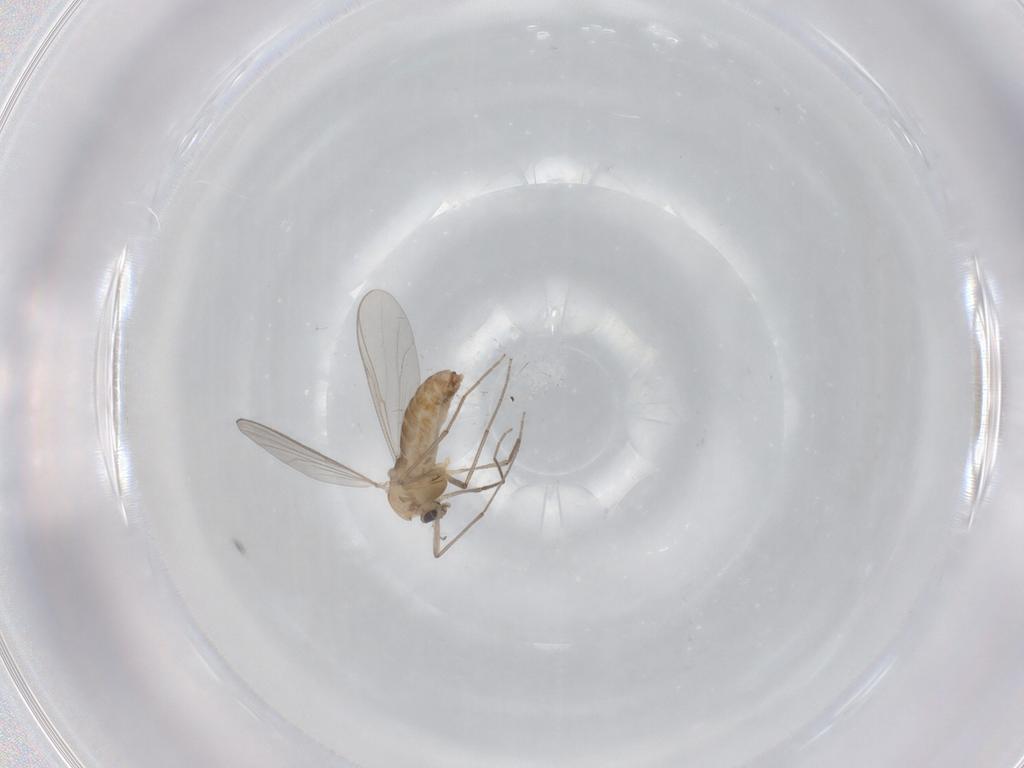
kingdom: Animalia
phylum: Arthropoda
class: Insecta
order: Diptera
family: Chironomidae
